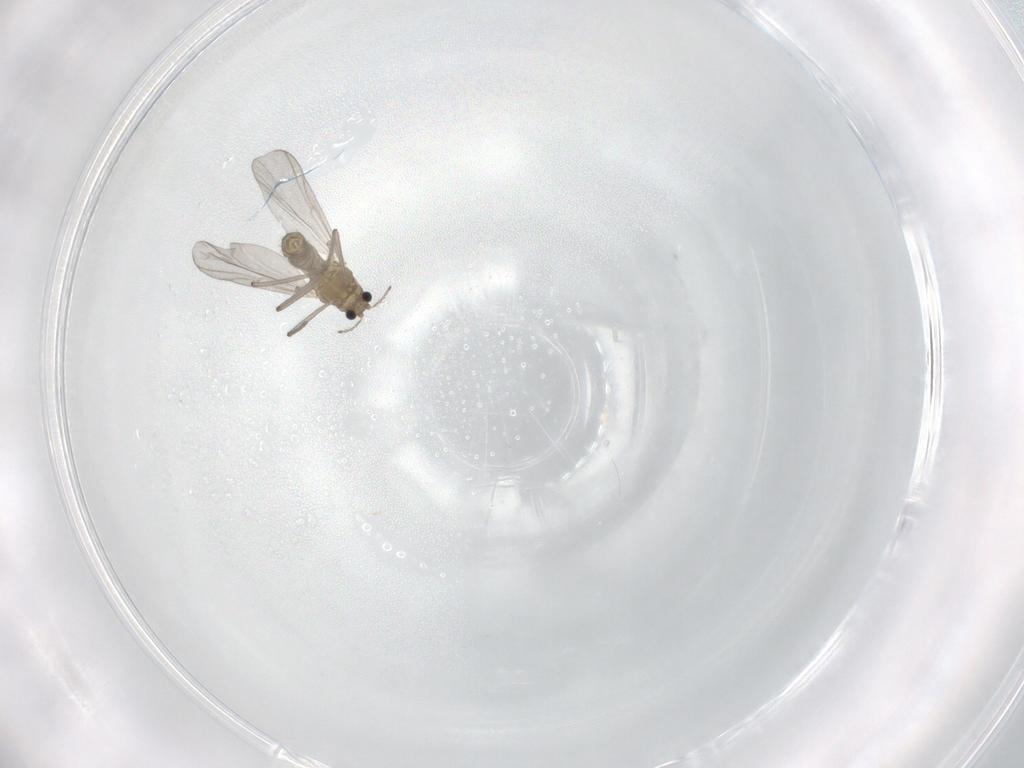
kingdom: Animalia
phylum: Arthropoda
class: Insecta
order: Diptera
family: Chironomidae
